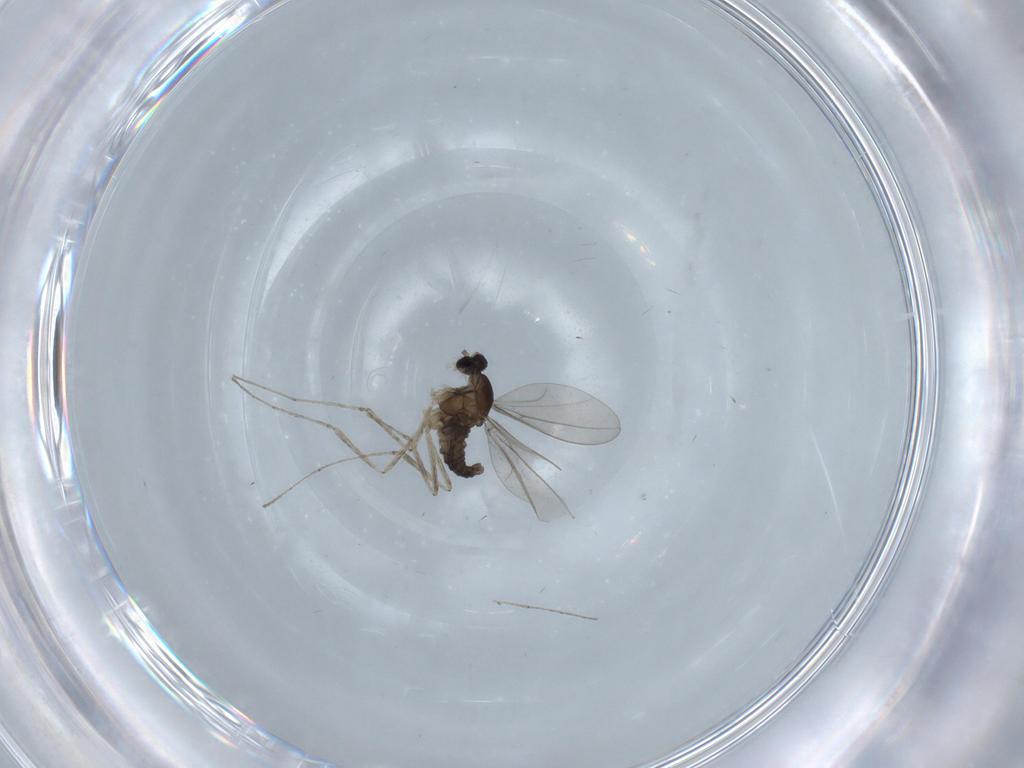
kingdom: Animalia
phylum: Arthropoda
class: Insecta
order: Diptera
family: Cecidomyiidae
